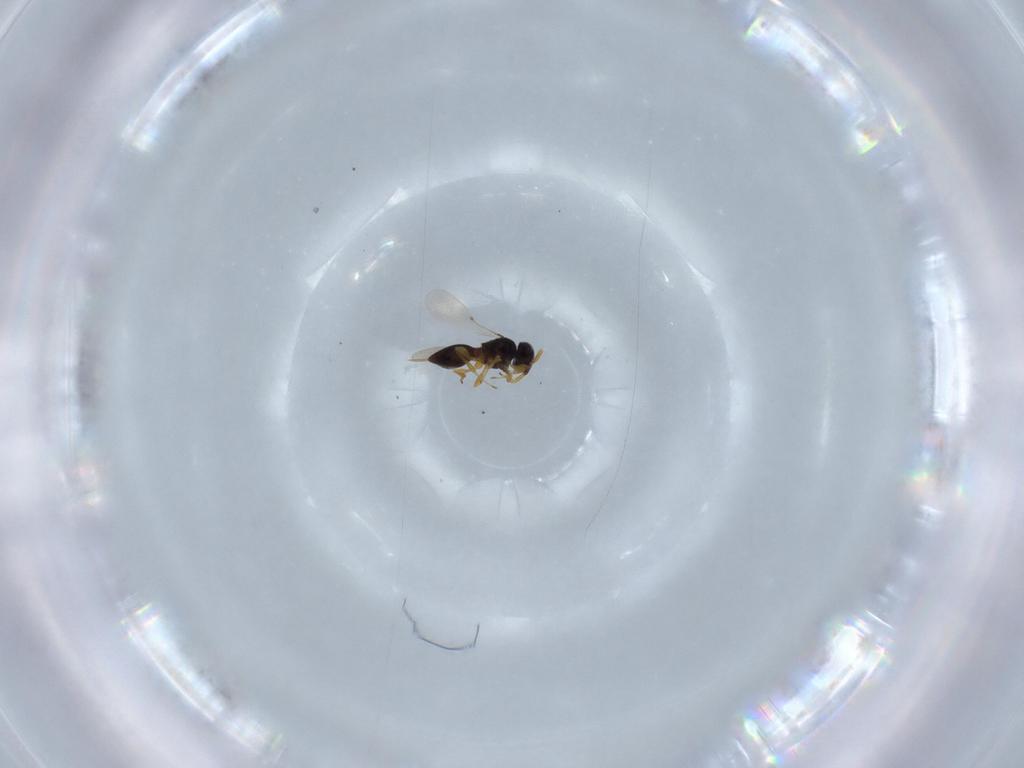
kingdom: Animalia
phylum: Arthropoda
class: Insecta
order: Hymenoptera
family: Platygastridae
